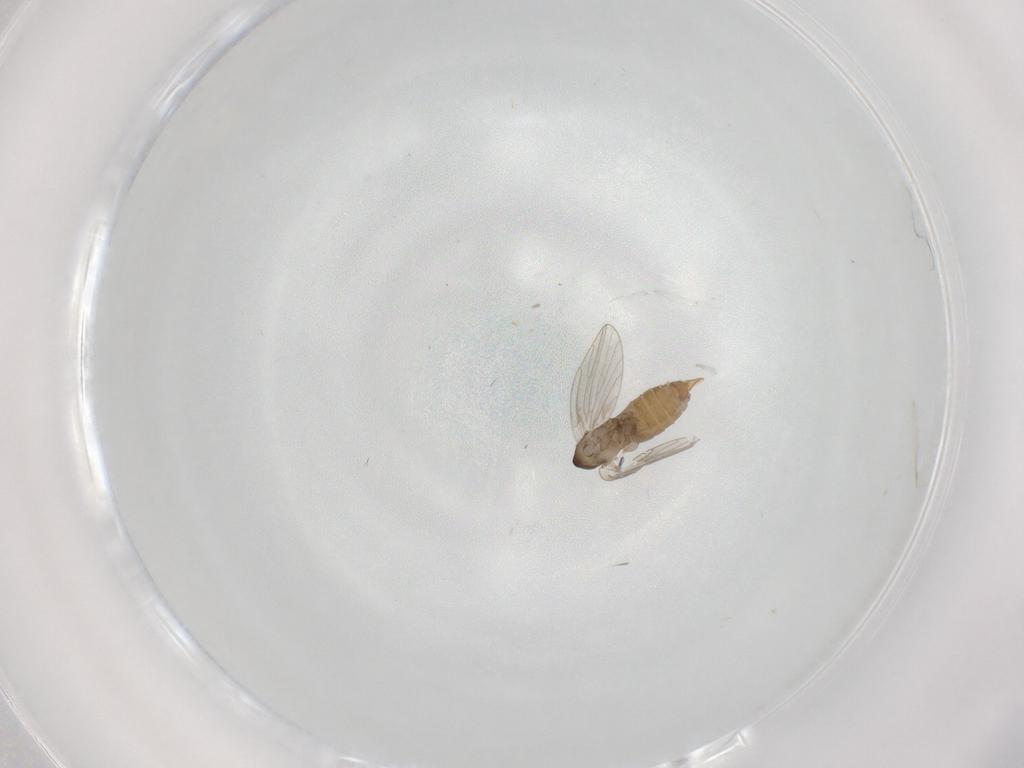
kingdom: Animalia
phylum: Arthropoda
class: Insecta
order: Diptera
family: Psychodidae
